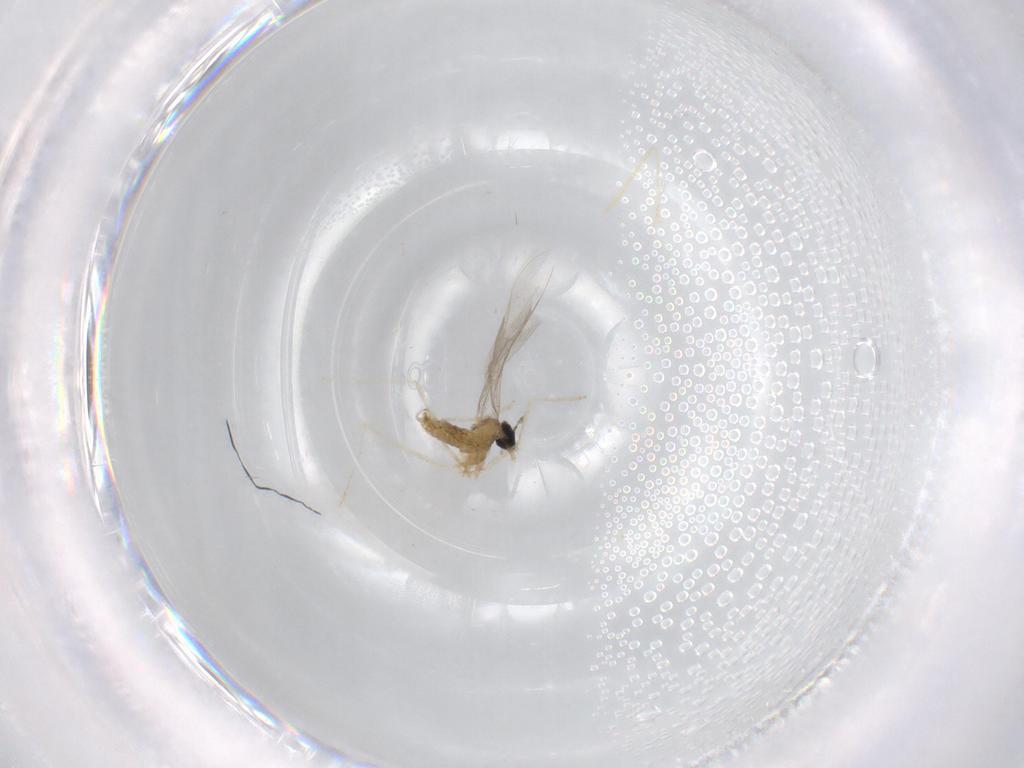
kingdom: Animalia
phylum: Arthropoda
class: Insecta
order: Diptera
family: Cecidomyiidae
